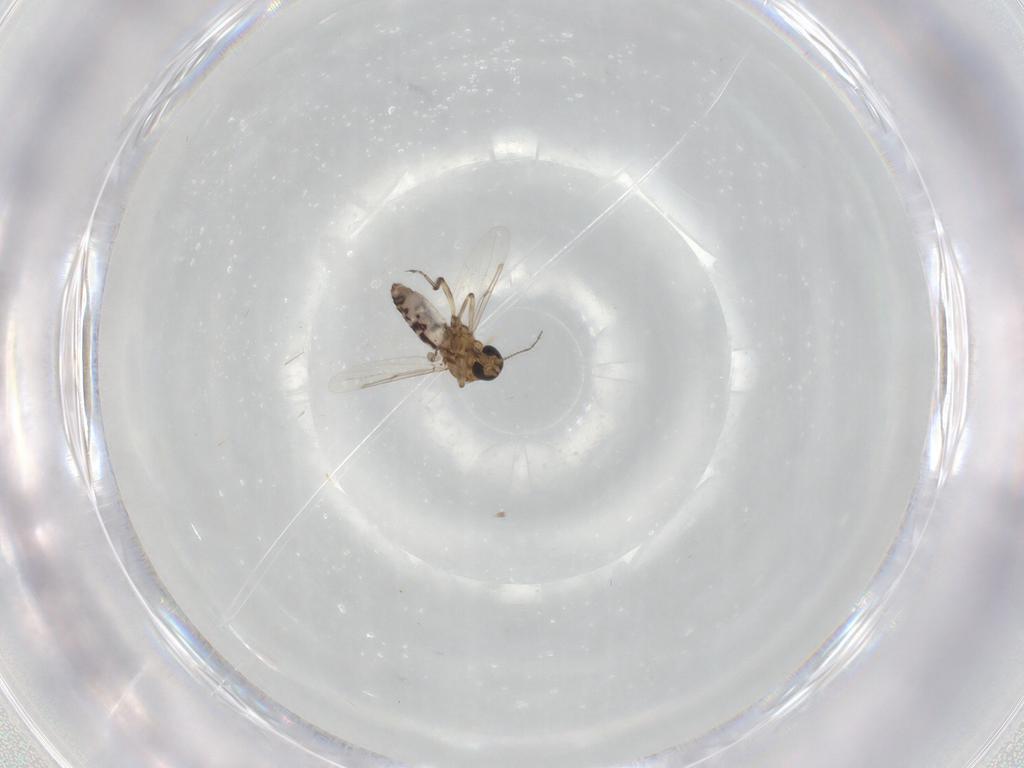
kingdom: Animalia
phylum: Arthropoda
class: Insecta
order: Diptera
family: Ceratopogonidae
